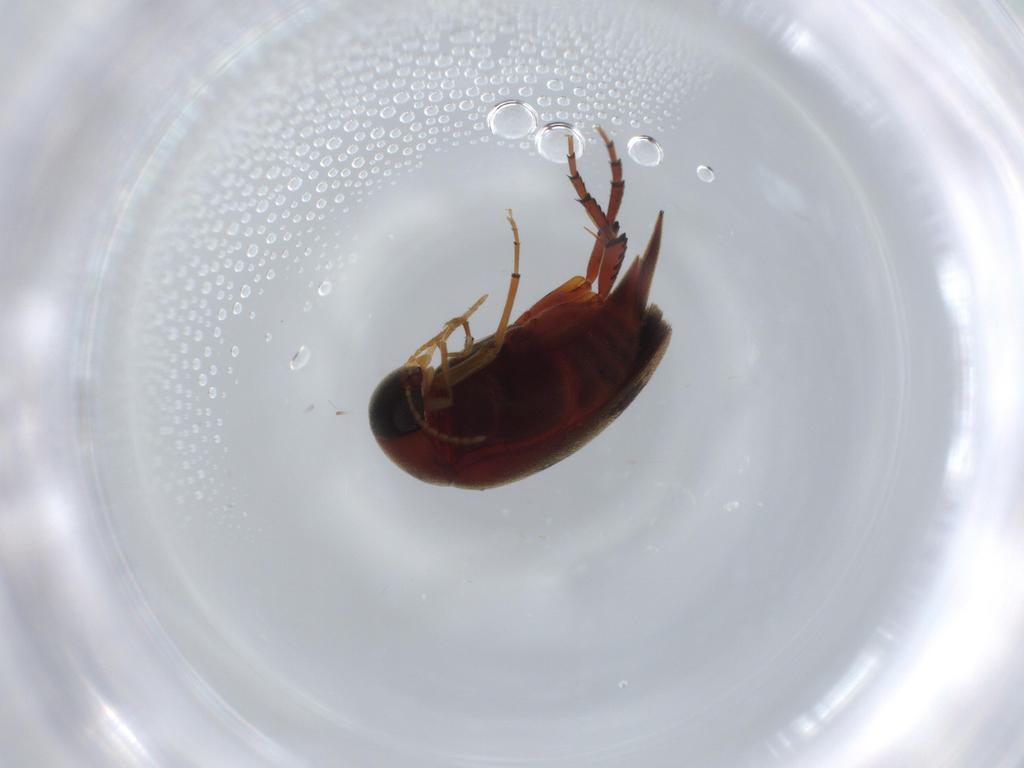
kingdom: Animalia
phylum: Arthropoda
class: Insecta
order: Coleoptera
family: Mordellidae
